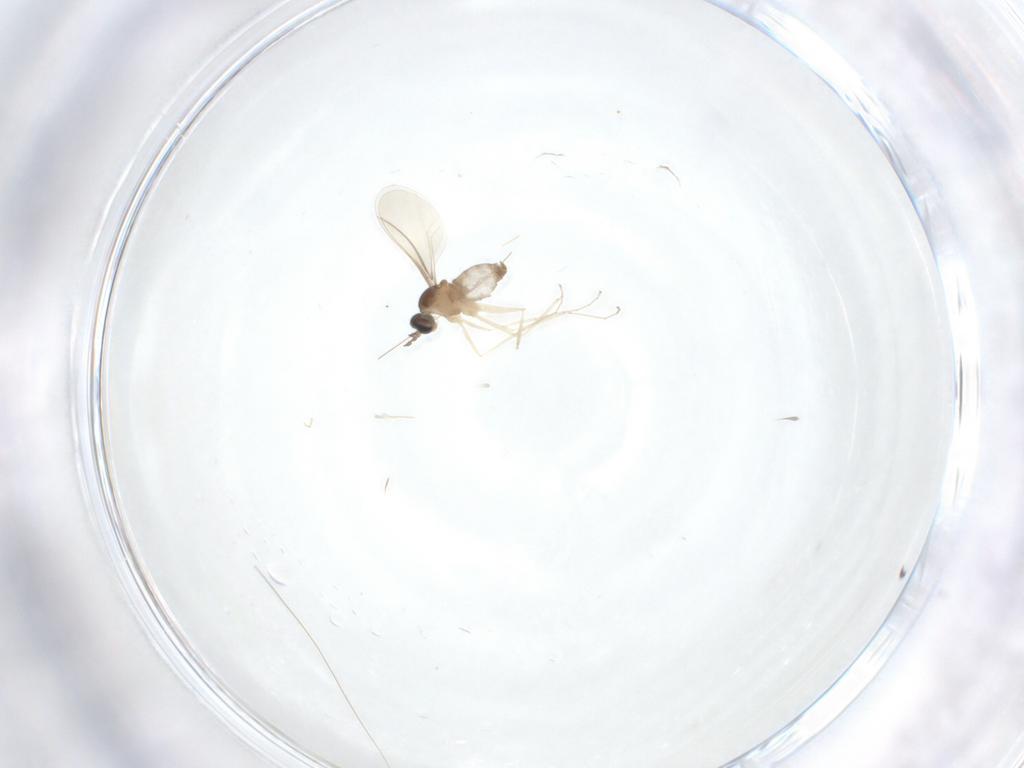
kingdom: Animalia
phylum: Arthropoda
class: Insecta
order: Diptera
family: Cecidomyiidae
